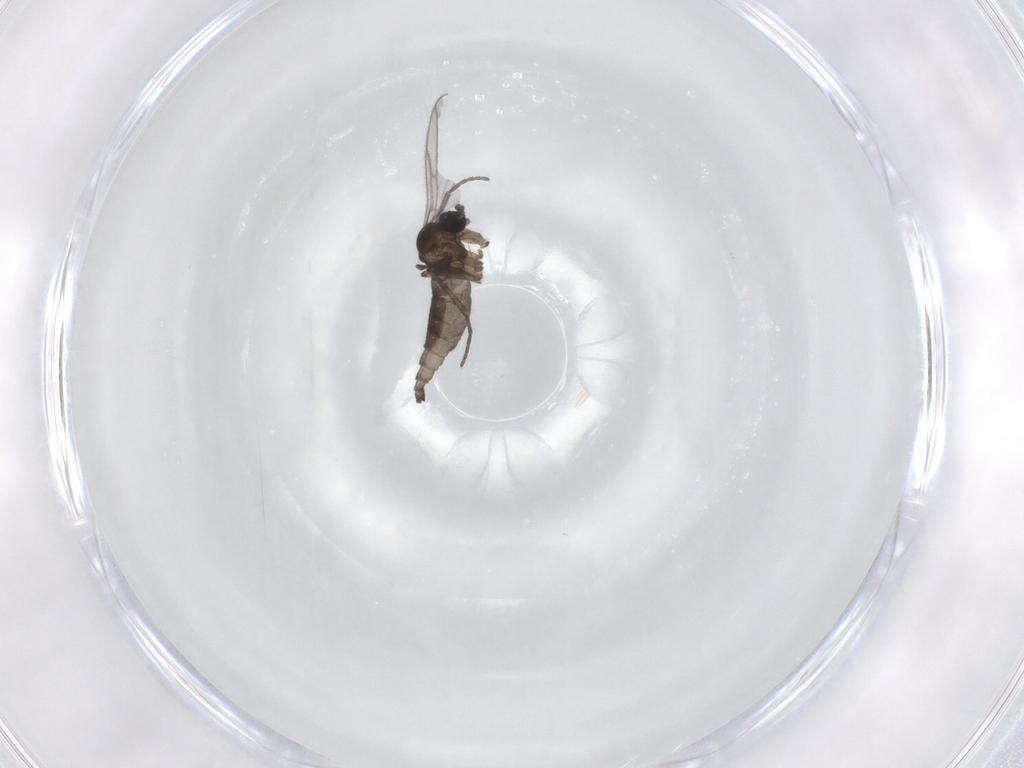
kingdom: Animalia
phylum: Arthropoda
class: Insecta
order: Diptera
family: Sciaridae
